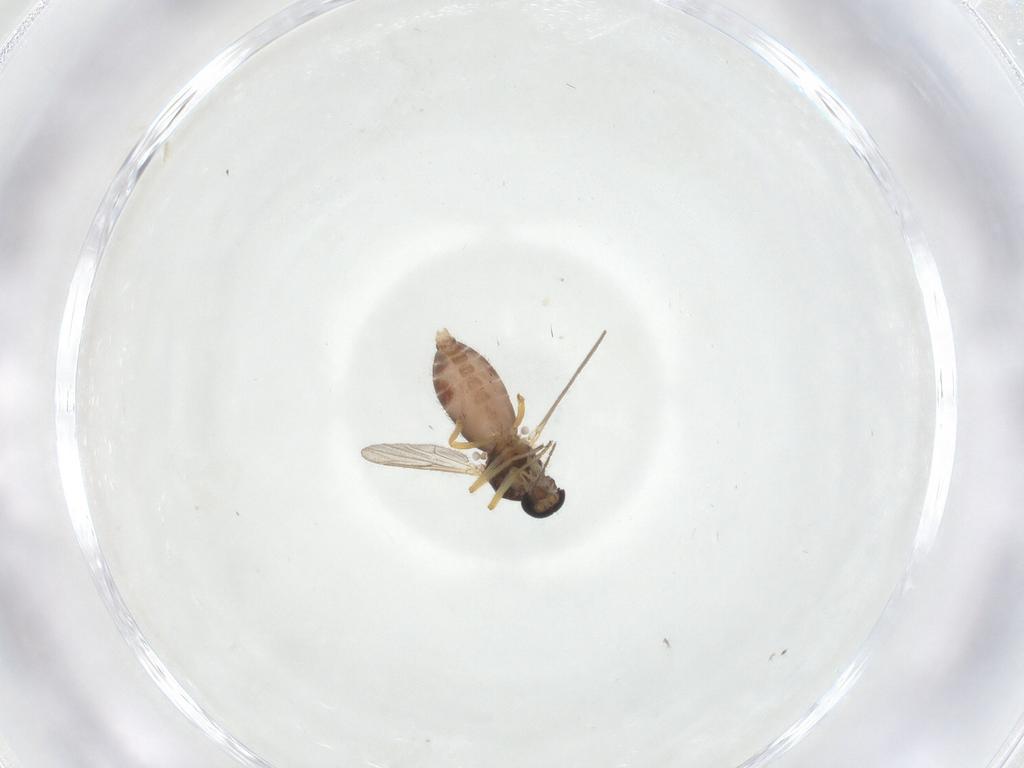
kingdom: Animalia
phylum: Arthropoda
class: Insecta
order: Diptera
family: Ceratopogonidae
